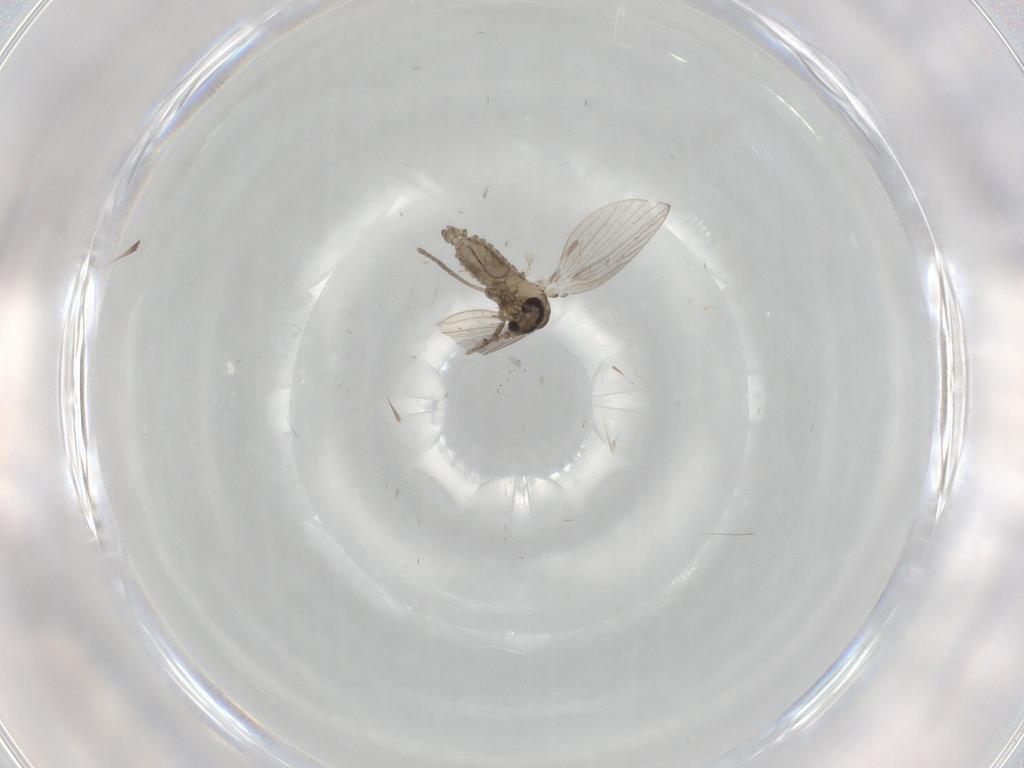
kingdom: Animalia
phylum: Arthropoda
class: Insecta
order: Diptera
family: Psychodidae
